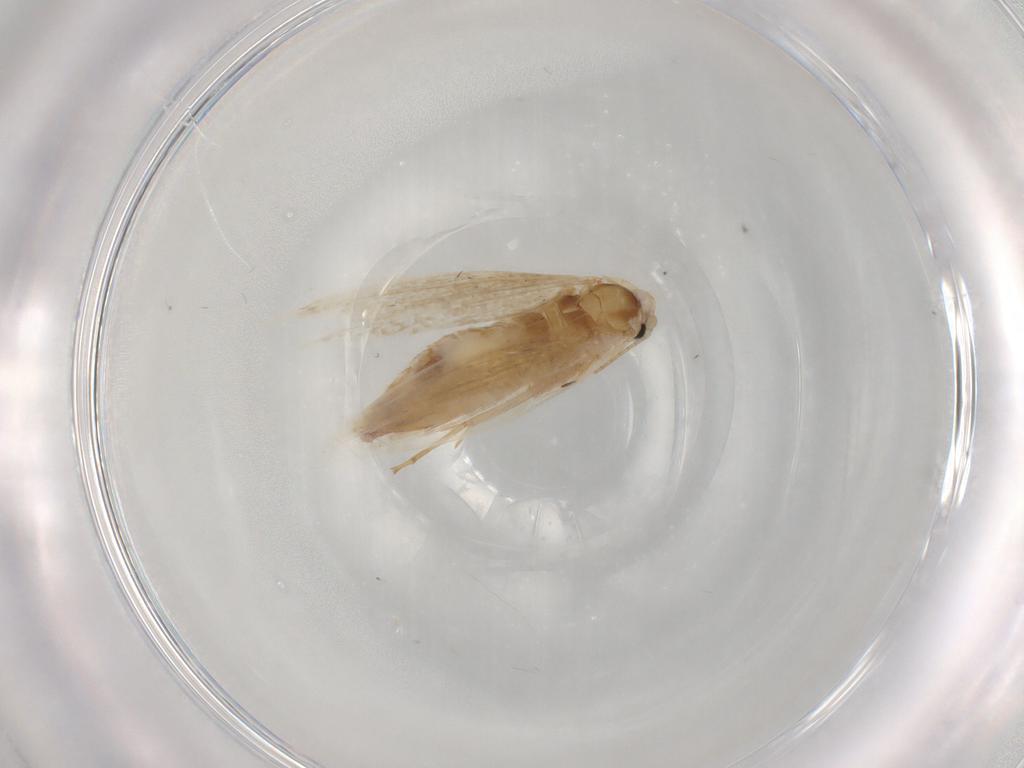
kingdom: Animalia
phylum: Arthropoda
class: Insecta
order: Lepidoptera
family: Bucculatricidae
